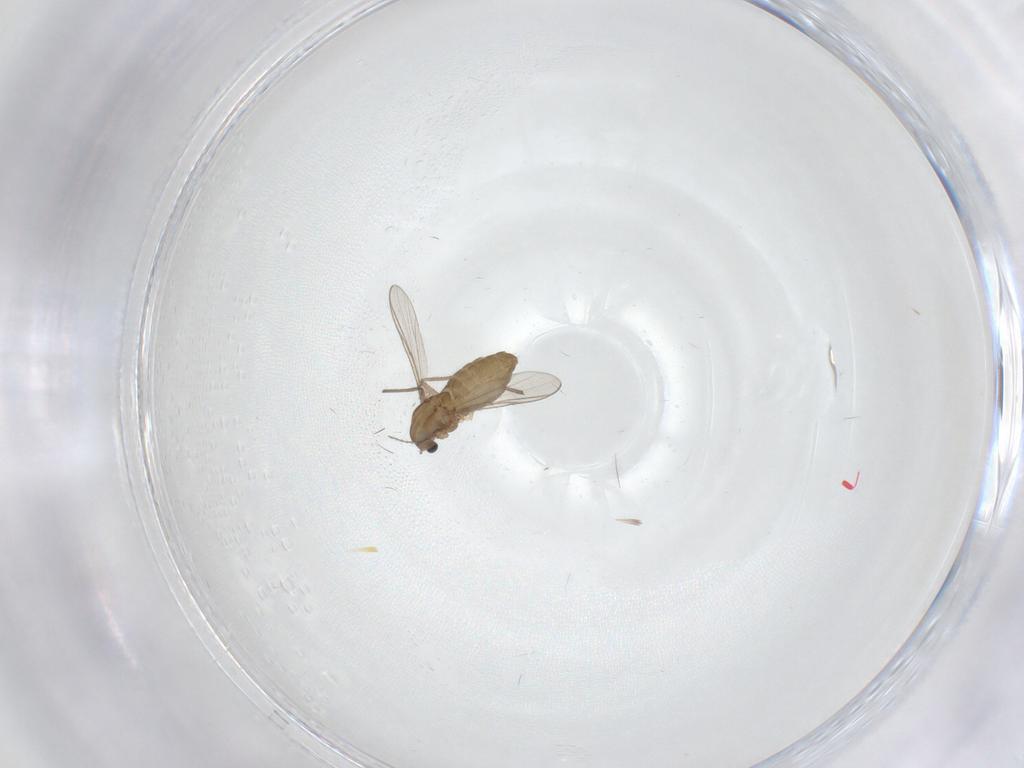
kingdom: Animalia
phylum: Arthropoda
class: Insecta
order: Diptera
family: Chironomidae
